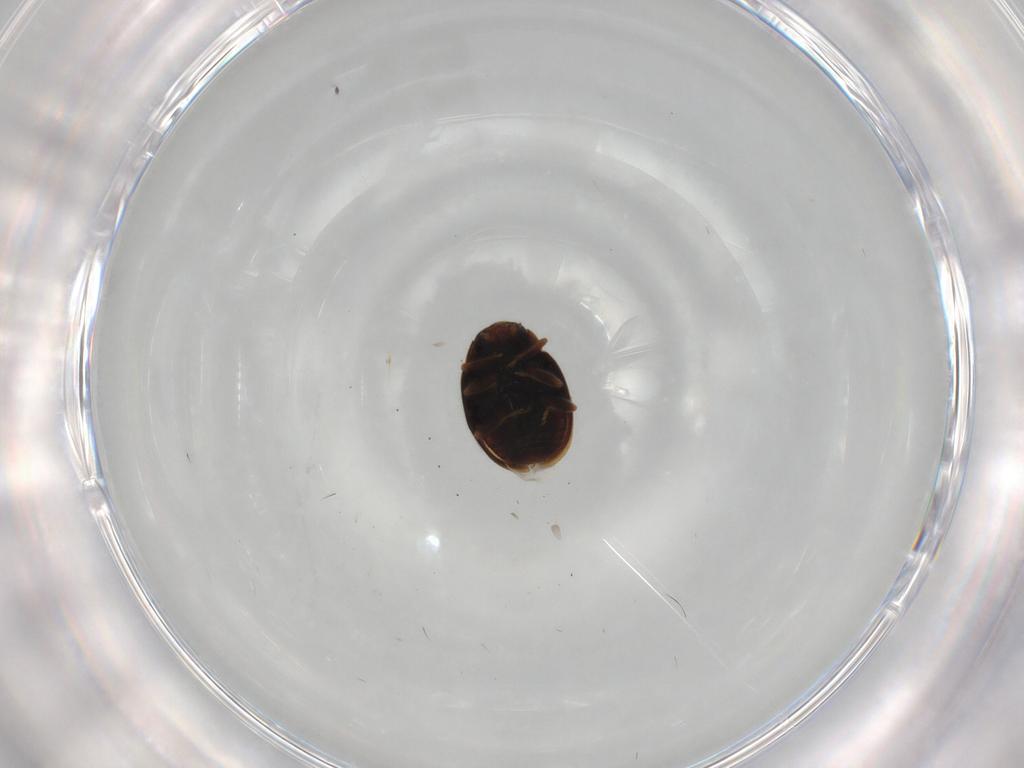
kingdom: Animalia
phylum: Arthropoda
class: Insecta
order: Coleoptera
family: Coccinellidae
